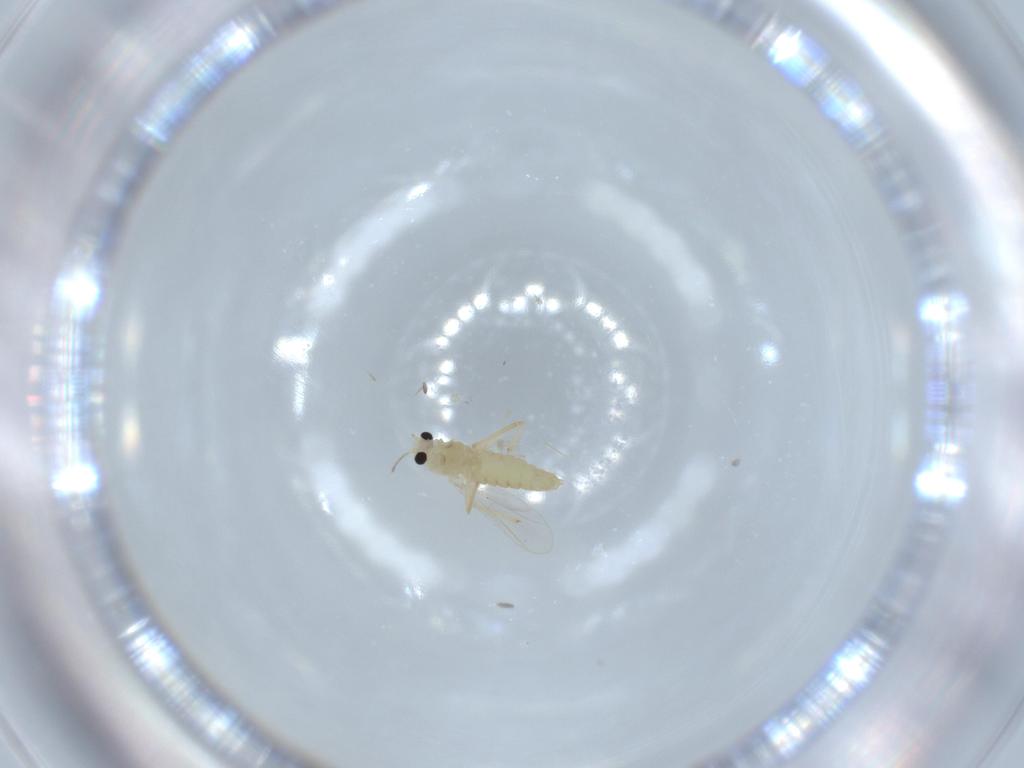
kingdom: Animalia
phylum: Arthropoda
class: Insecta
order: Diptera
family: Chironomidae
